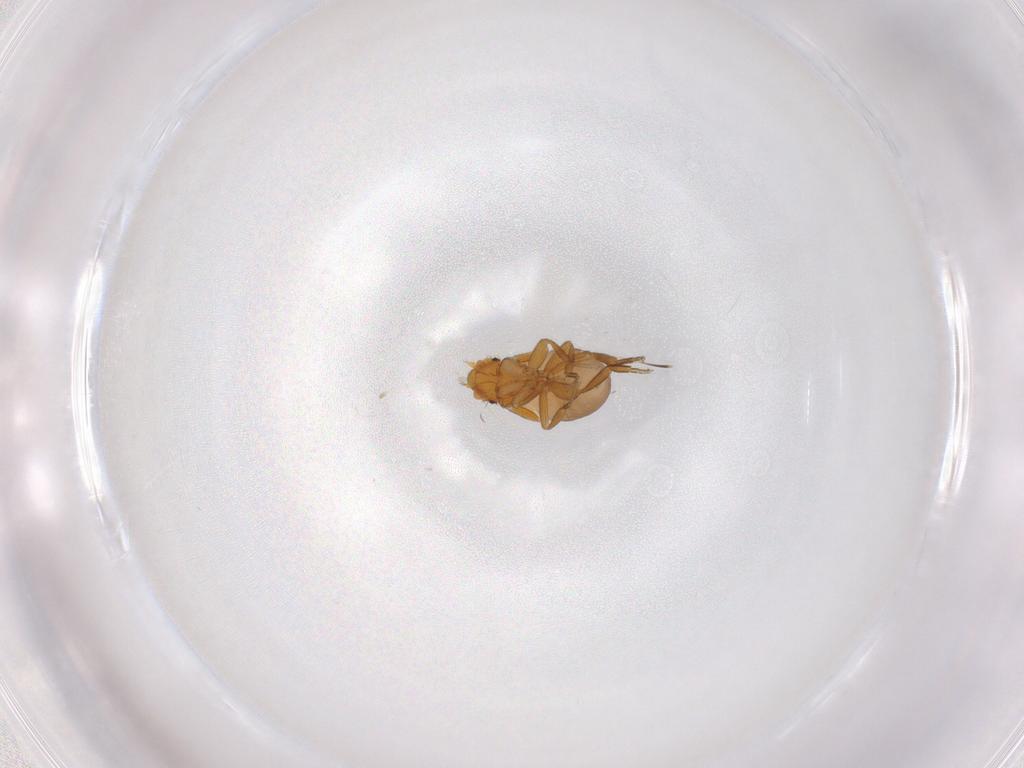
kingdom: Animalia
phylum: Arthropoda
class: Insecta
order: Diptera
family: Phoridae
